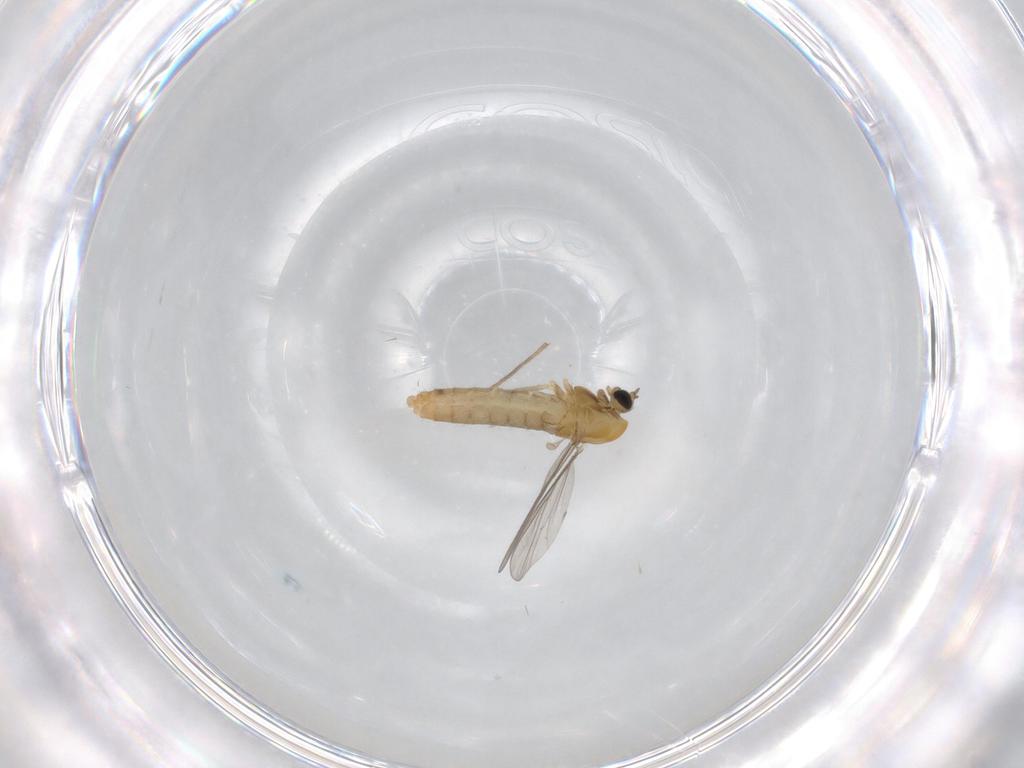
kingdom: Animalia
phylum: Arthropoda
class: Insecta
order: Diptera
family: Chironomidae
